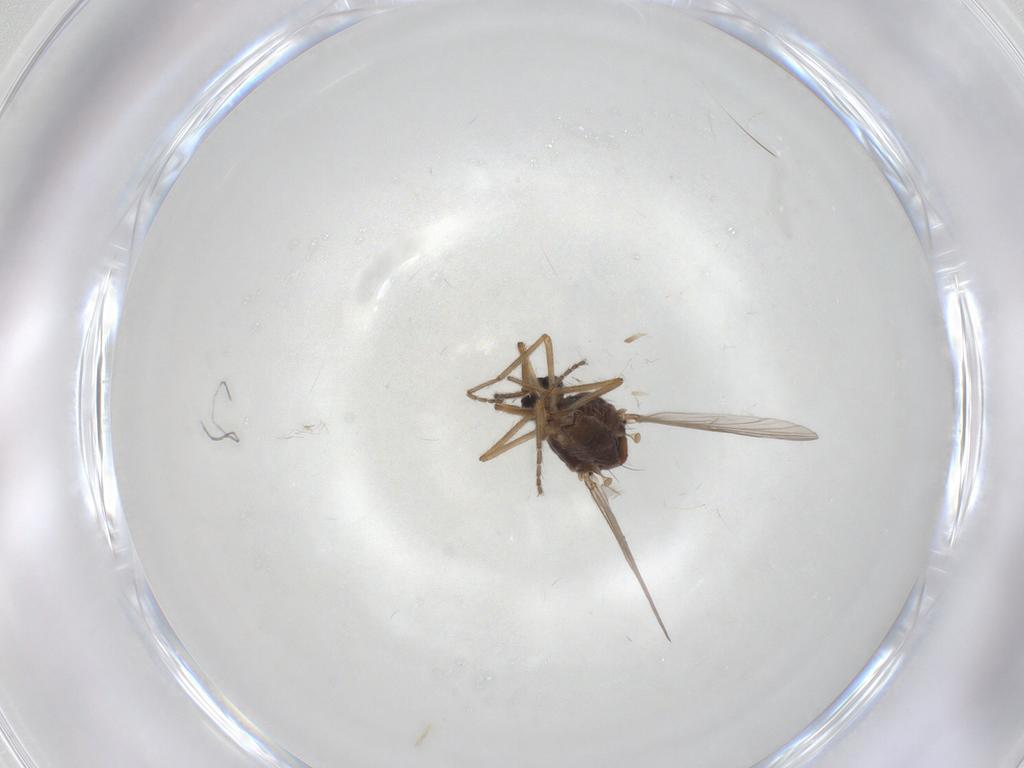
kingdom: Animalia
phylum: Arthropoda
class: Insecta
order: Diptera
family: Ceratopogonidae
